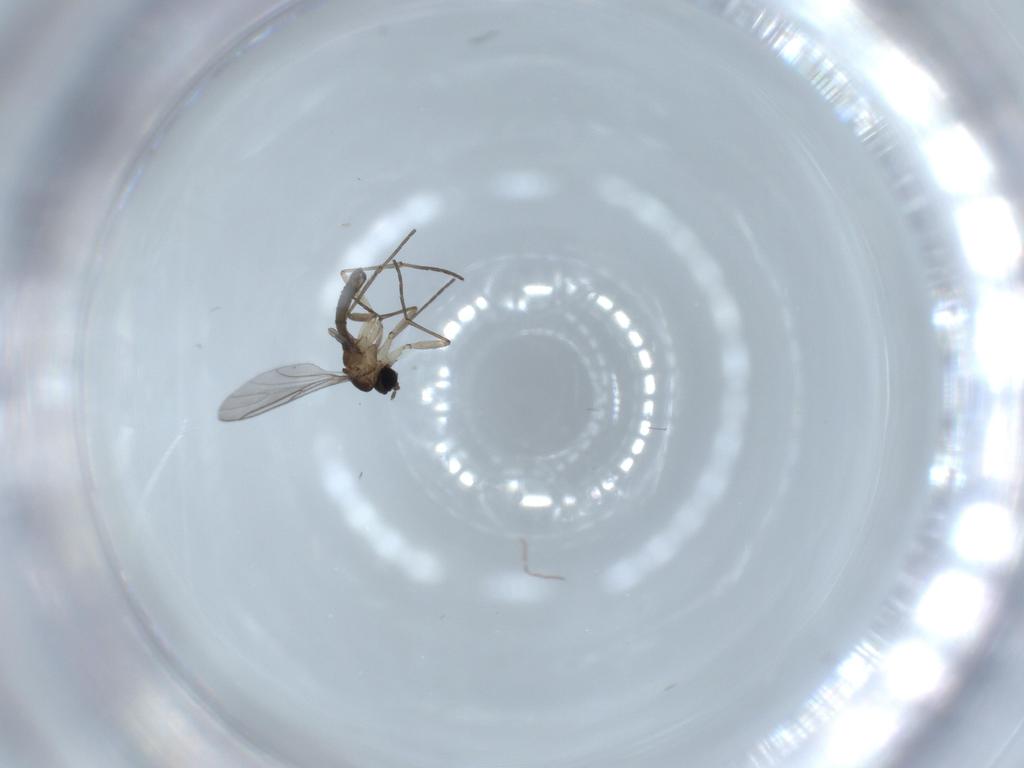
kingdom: Animalia
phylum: Arthropoda
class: Insecta
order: Diptera
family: Sciaridae
